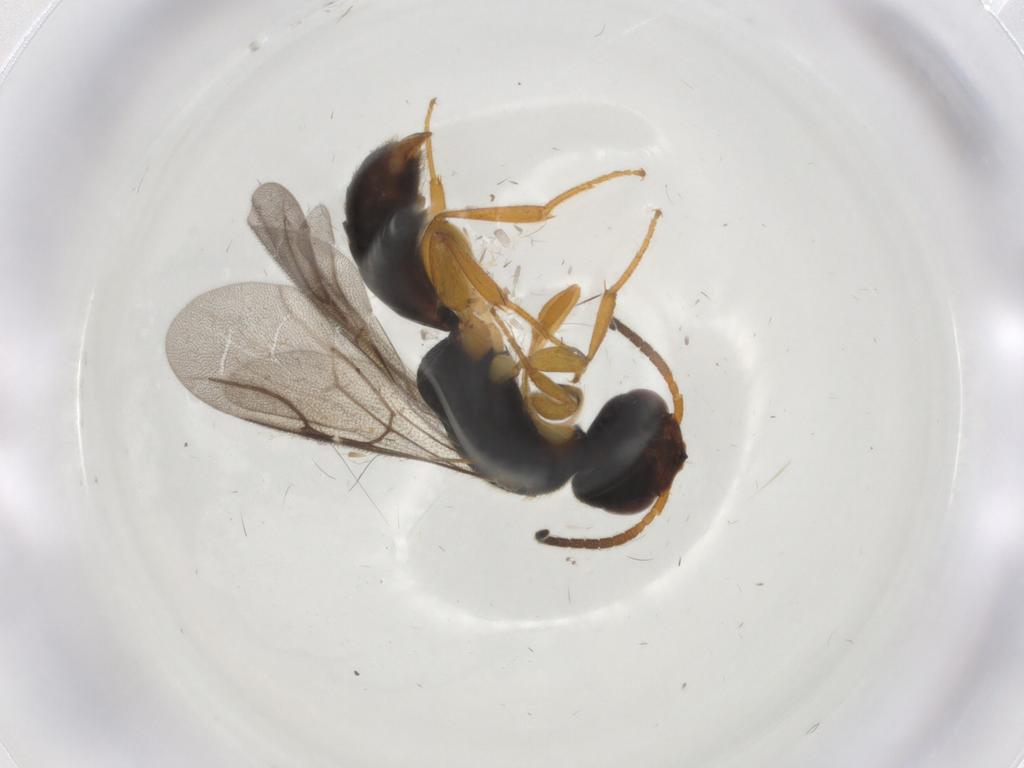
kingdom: Animalia
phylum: Arthropoda
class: Insecta
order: Hymenoptera
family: Bethylidae
